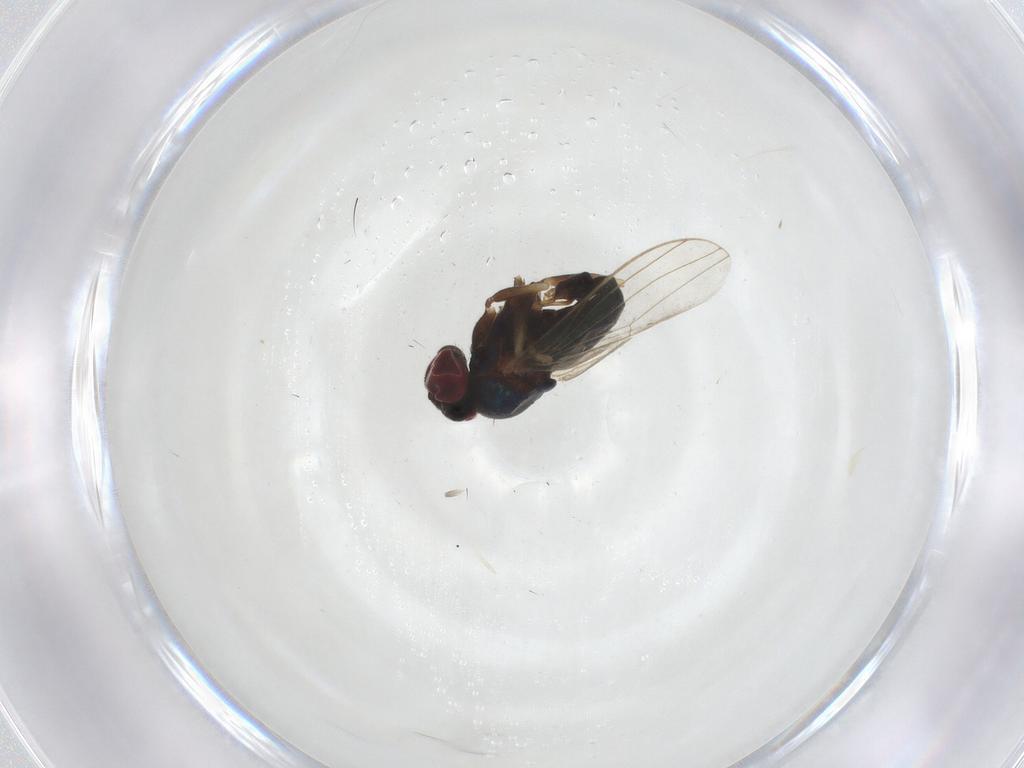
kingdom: Animalia
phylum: Arthropoda
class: Insecta
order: Diptera
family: Dolichopodidae
